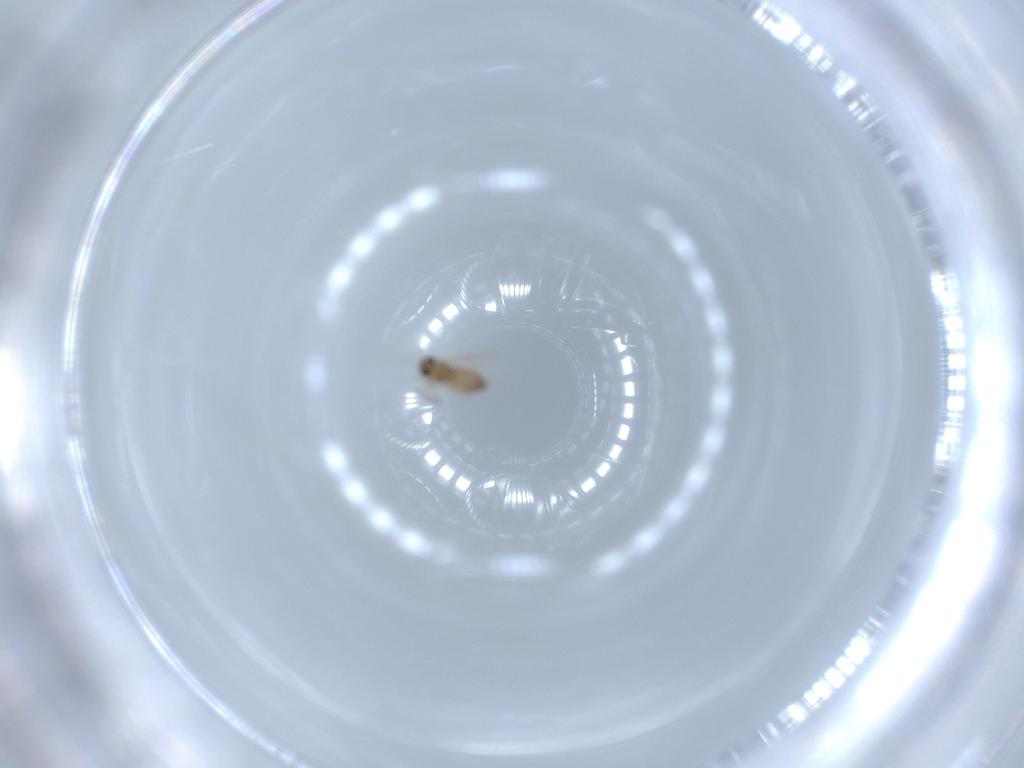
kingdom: Animalia
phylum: Arthropoda
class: Insecta
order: Diptera
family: Chironomidae
